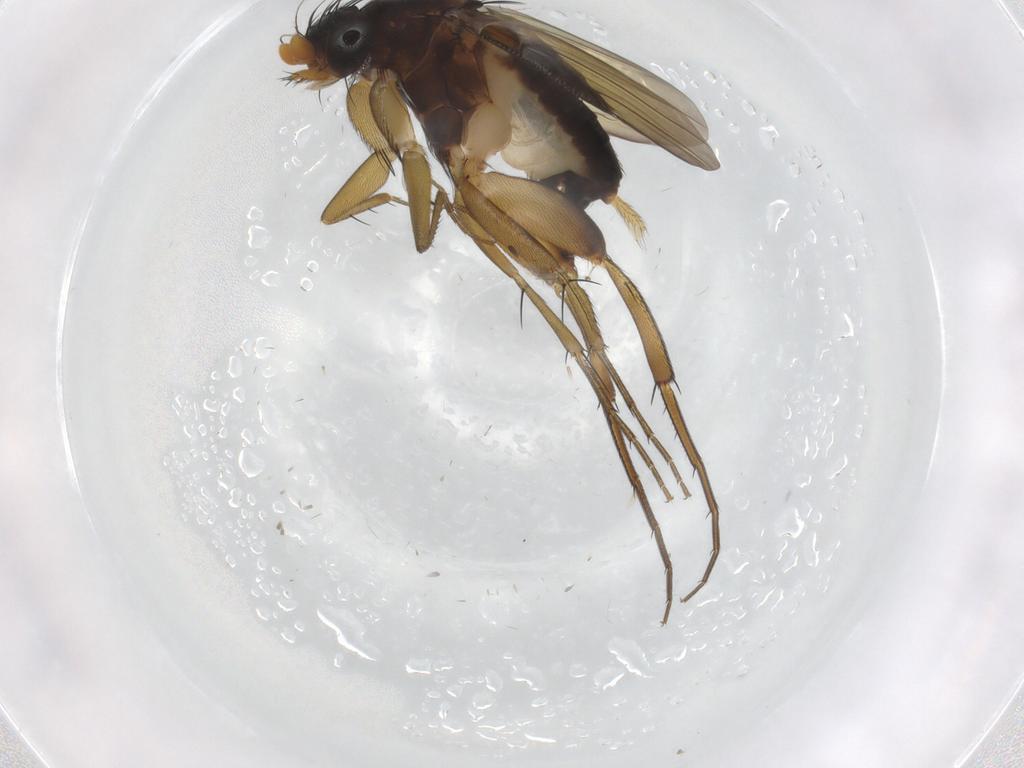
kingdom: Animalia
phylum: Arthropoda
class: Insecta
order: Diptera
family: Phoridae
